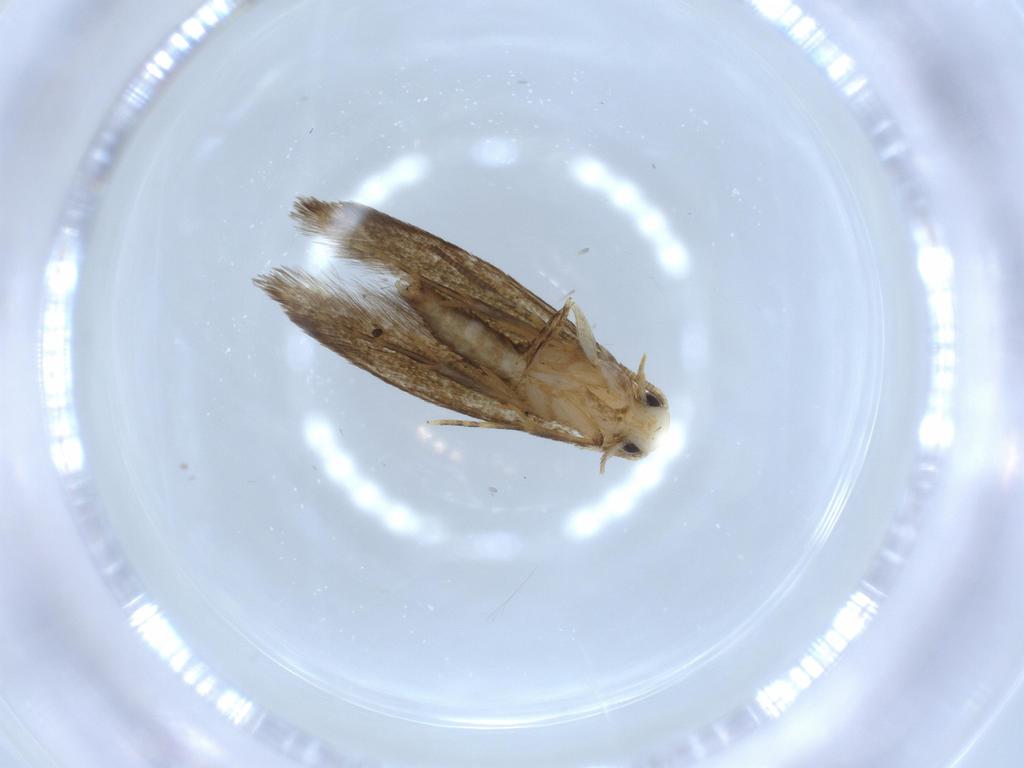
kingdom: Animalia
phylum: Arthropoda
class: Insecta
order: Lepidoptera
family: Tineidae
